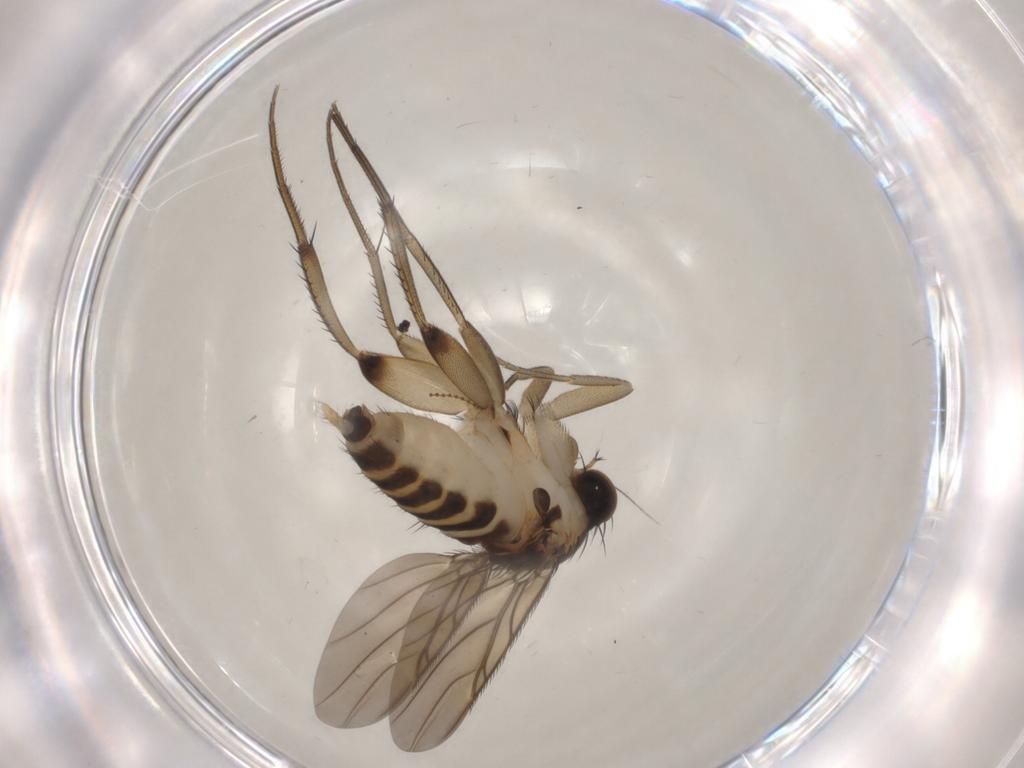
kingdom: Animalia
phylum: Arthropoda
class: Insecta
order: Diptera
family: Phoridae
